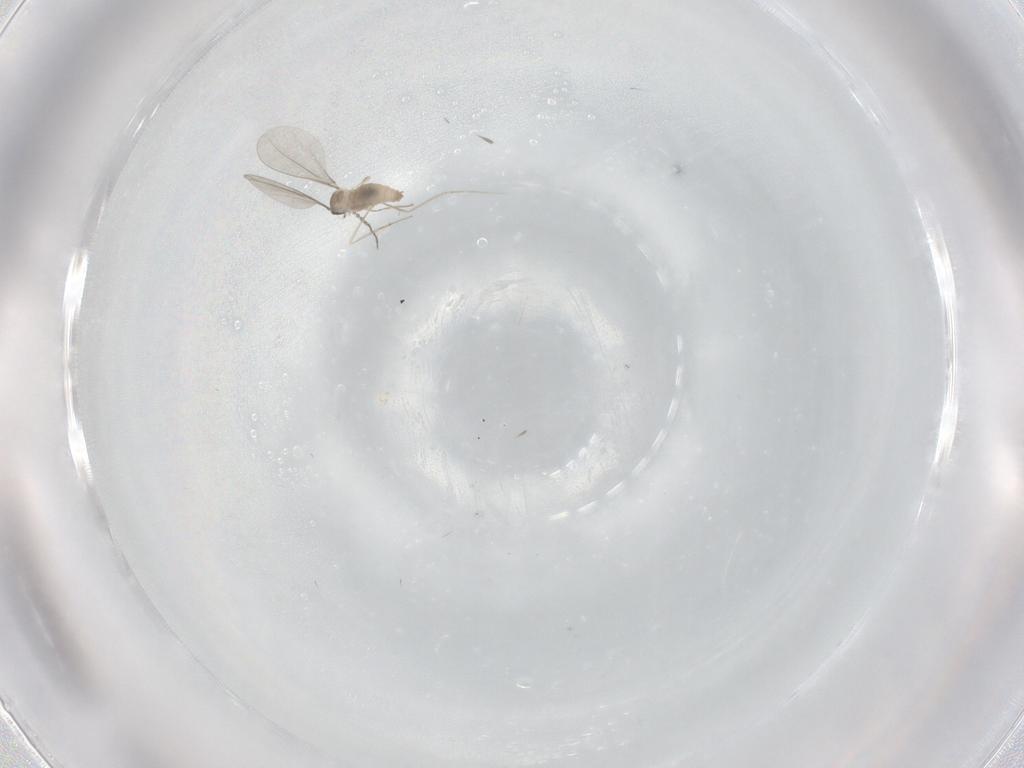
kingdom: Animalia
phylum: Arthropoda
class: Insecta
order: Diptera
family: Cecidomyiidae
